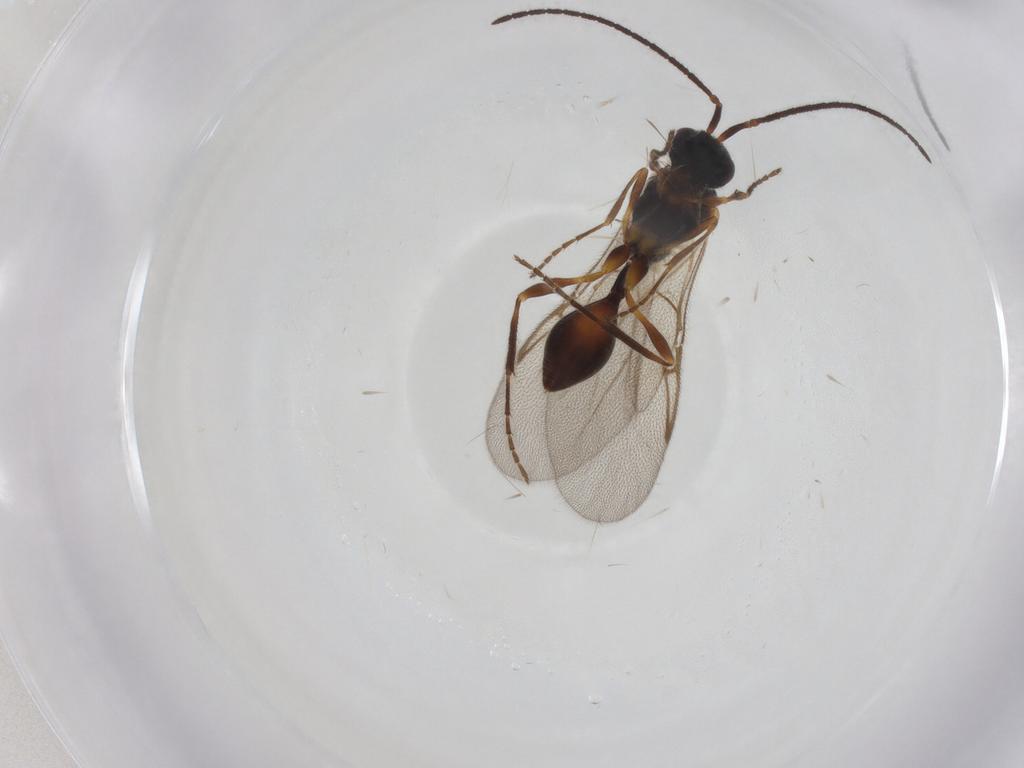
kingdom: Animalia
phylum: Arthropoda
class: Insecta
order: Hymenoptera
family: Diapriidae
